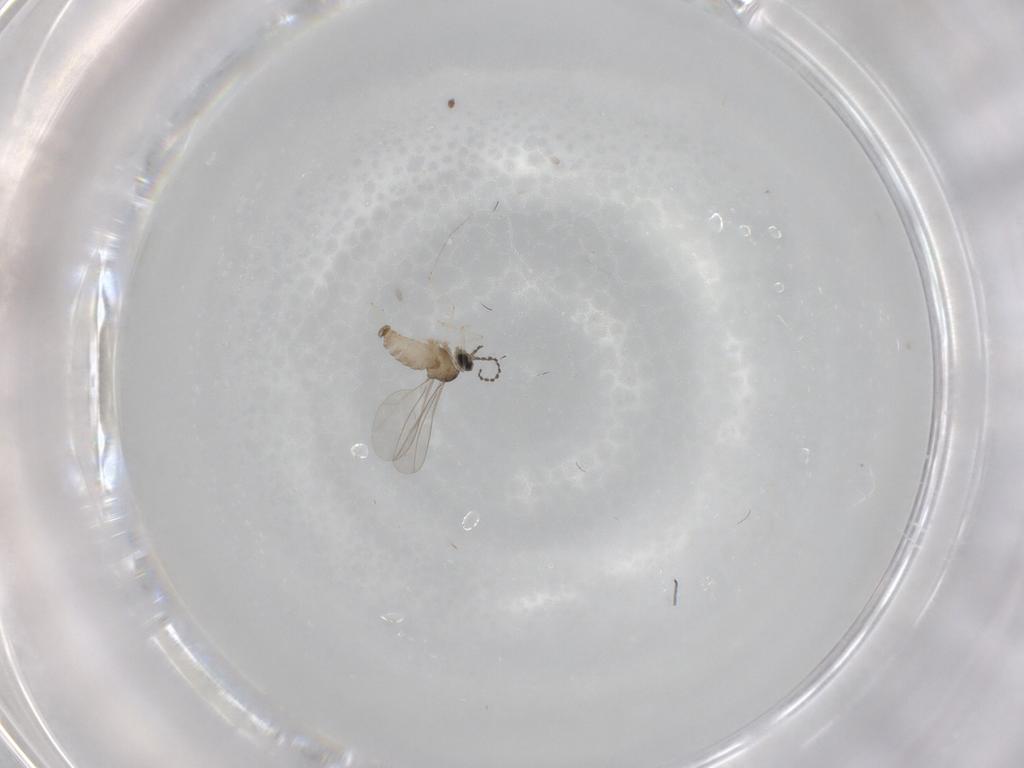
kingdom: Animalia
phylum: Arthropoda
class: Insecta
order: Diptera
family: Cecidomyiidae
